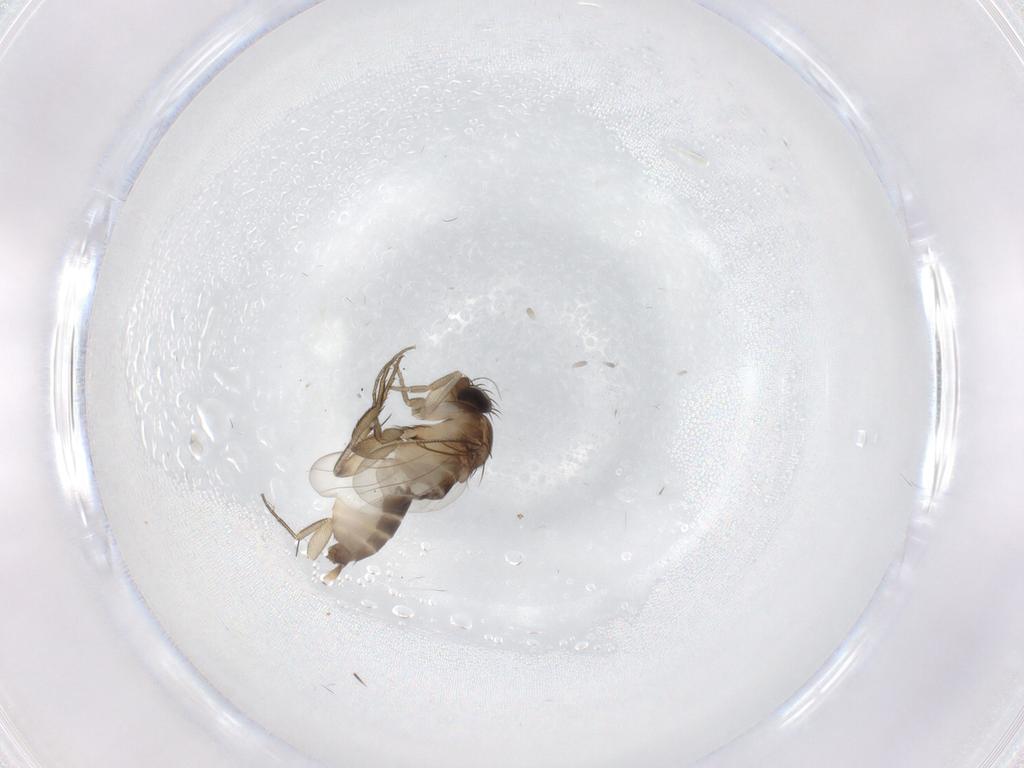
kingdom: Animalia
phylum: Arthropoda
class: Insecta
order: Diptera
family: Phoridae
